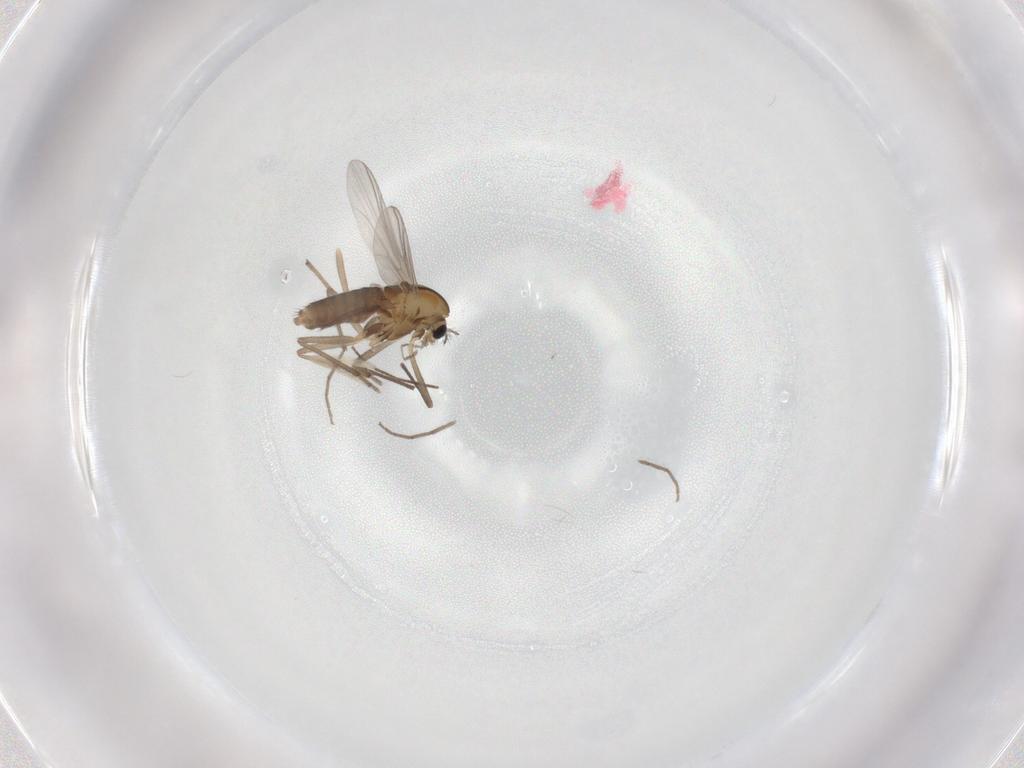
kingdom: Animalia
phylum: Arthropoda
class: Insecta
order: Diptera
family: Chironomidae
